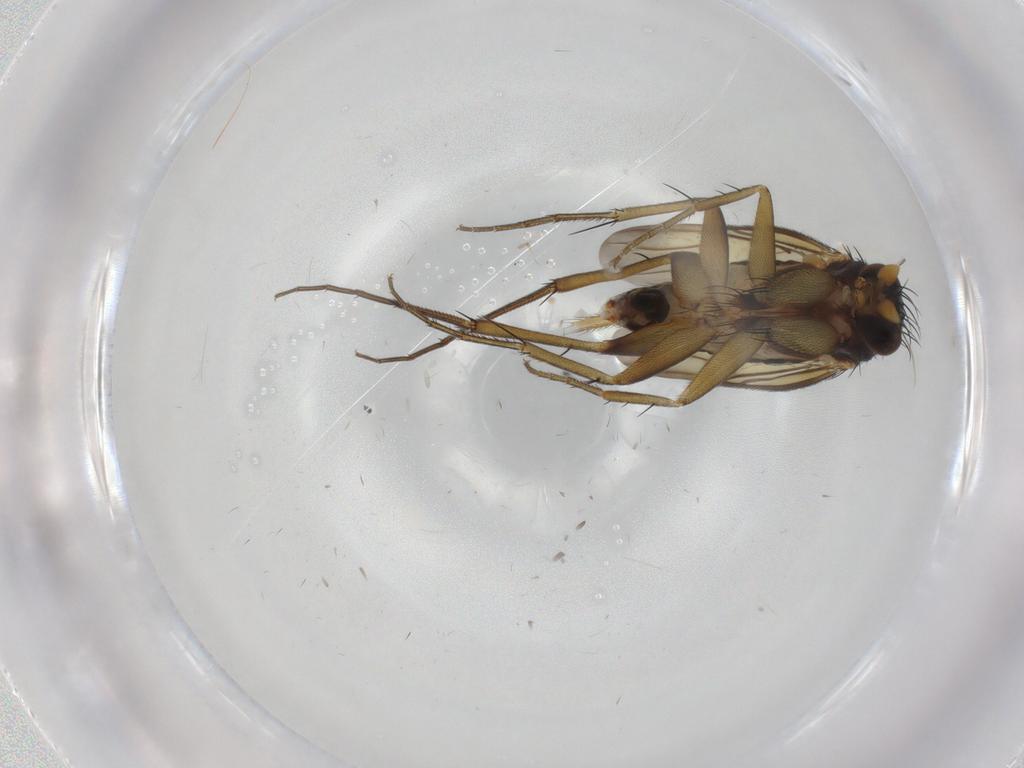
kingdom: Animalia
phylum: Arthropoda
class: Insecta
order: Diptera
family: Phoridae
